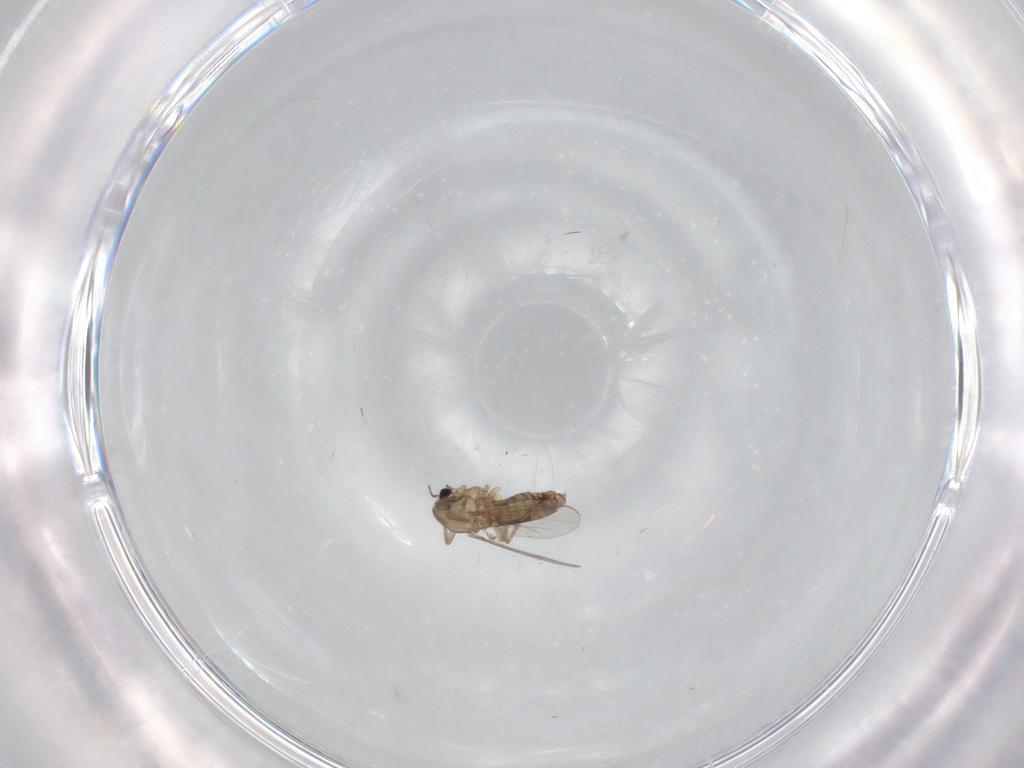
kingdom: Animalia
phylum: Arthropoda
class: Insecta
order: Diptera
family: Chironomidae
